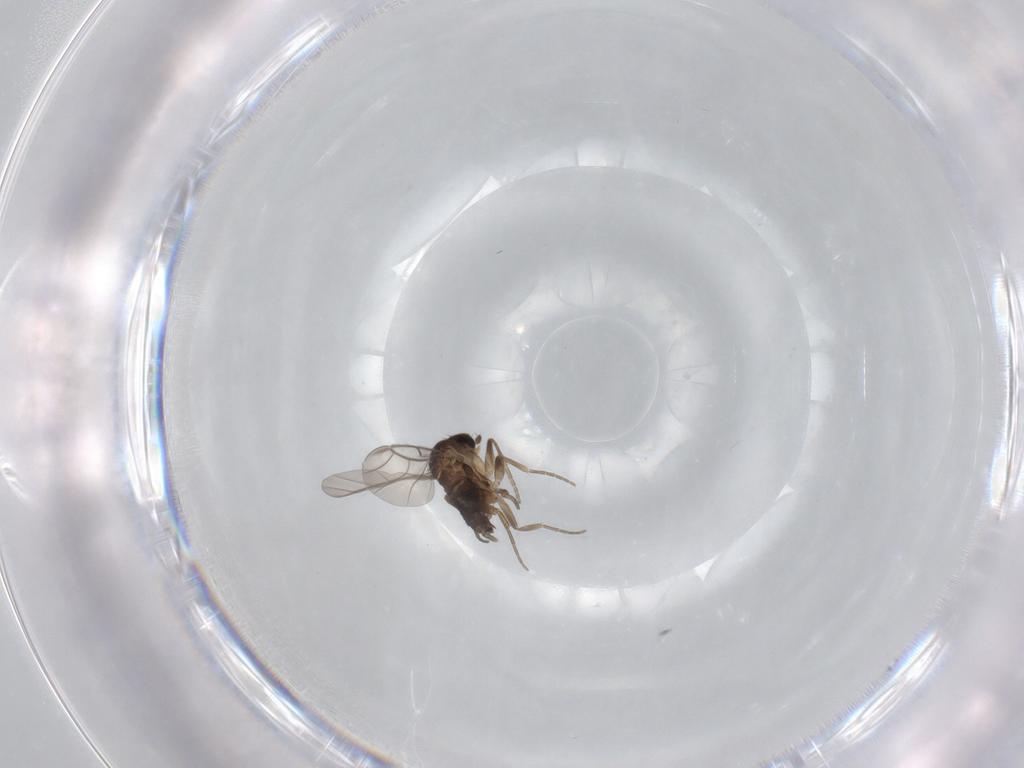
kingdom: Animalia
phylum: Arthropoda
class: Insecta
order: Diptera
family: Phoridae
